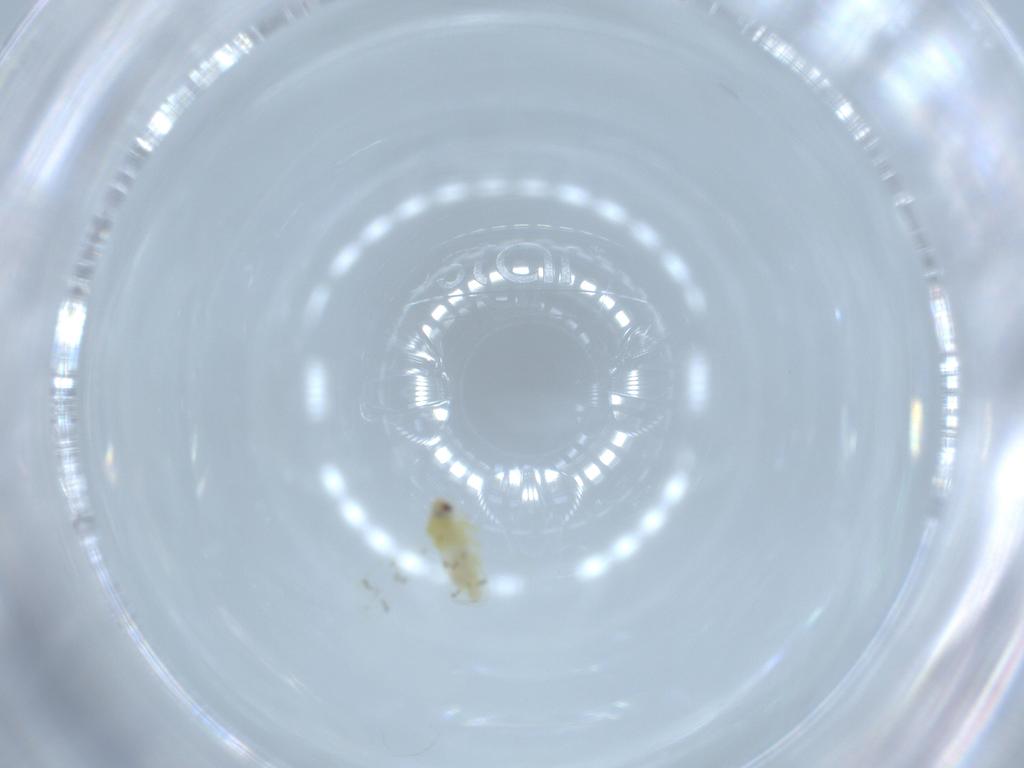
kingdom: Animalia
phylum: Arthropoda
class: Insecta
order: Hemiptera
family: Aleyrodidae
